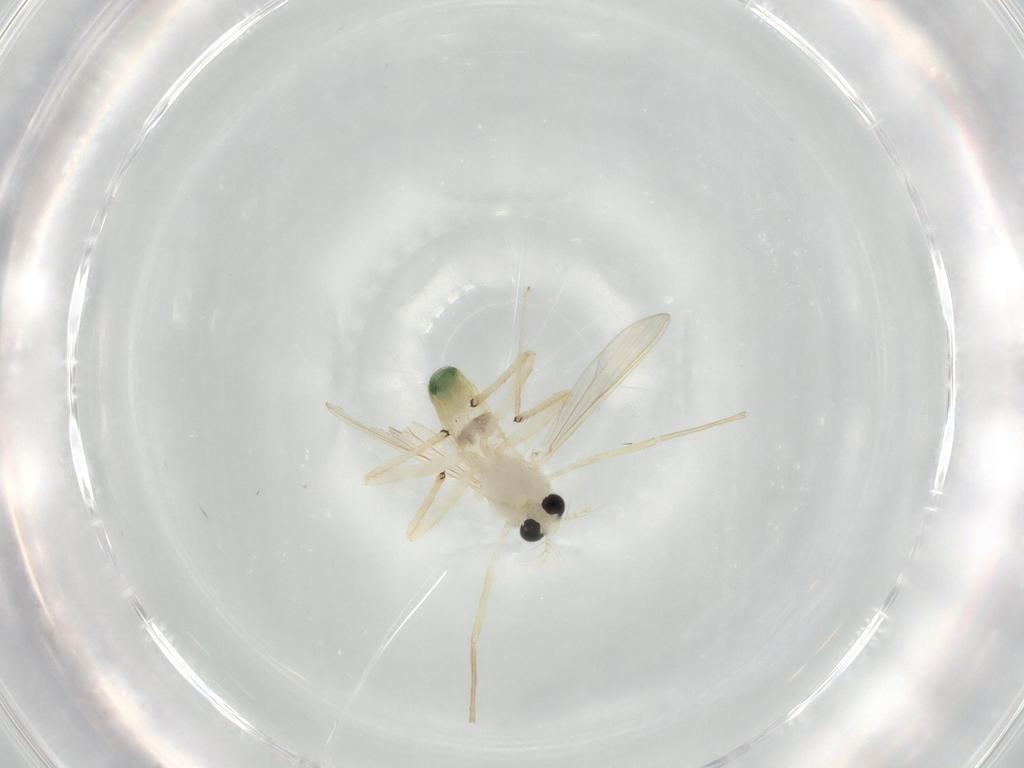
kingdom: Animalia
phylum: Arthropoda
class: Insecta
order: Diptera
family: Chironomidae
